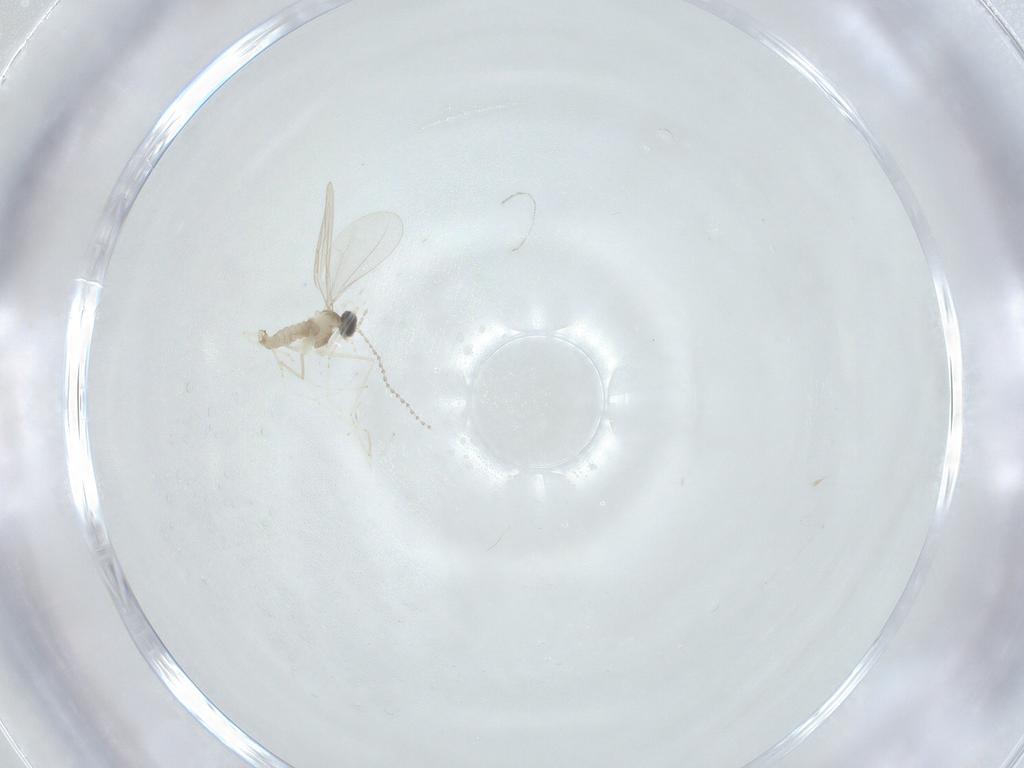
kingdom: Animalia
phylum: Arthropoda
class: Insecta
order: Diptera
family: Cecidomyiidae
